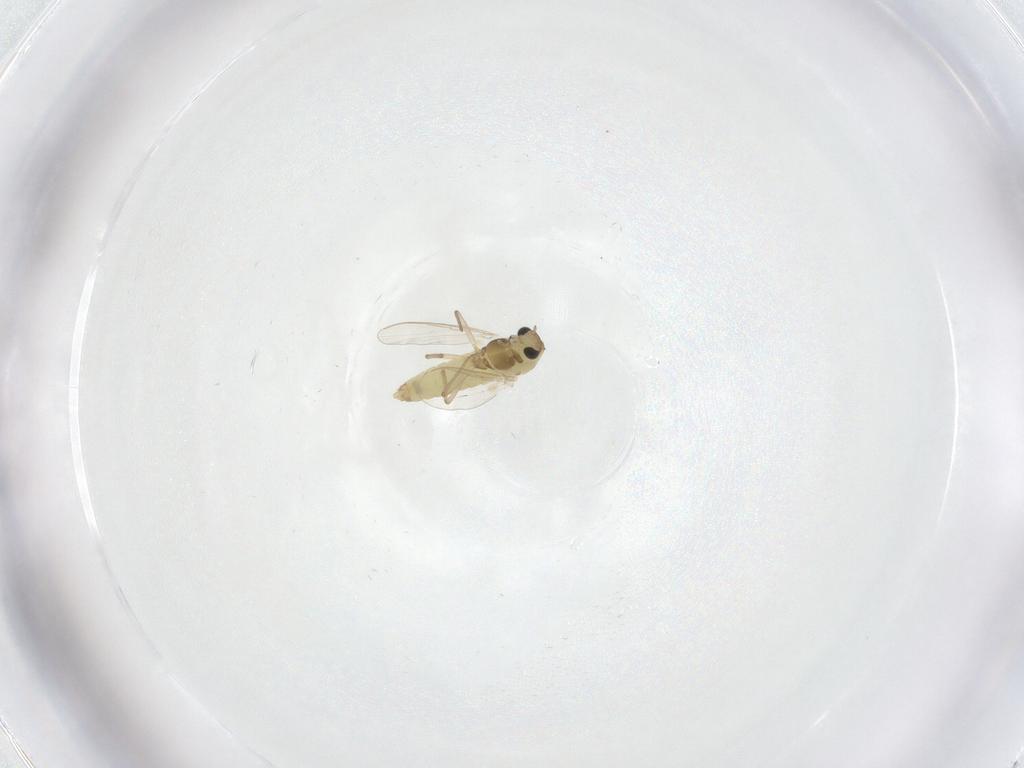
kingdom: Animalia
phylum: Arthropoda
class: Insecta
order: Diptera
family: Chironomidae
